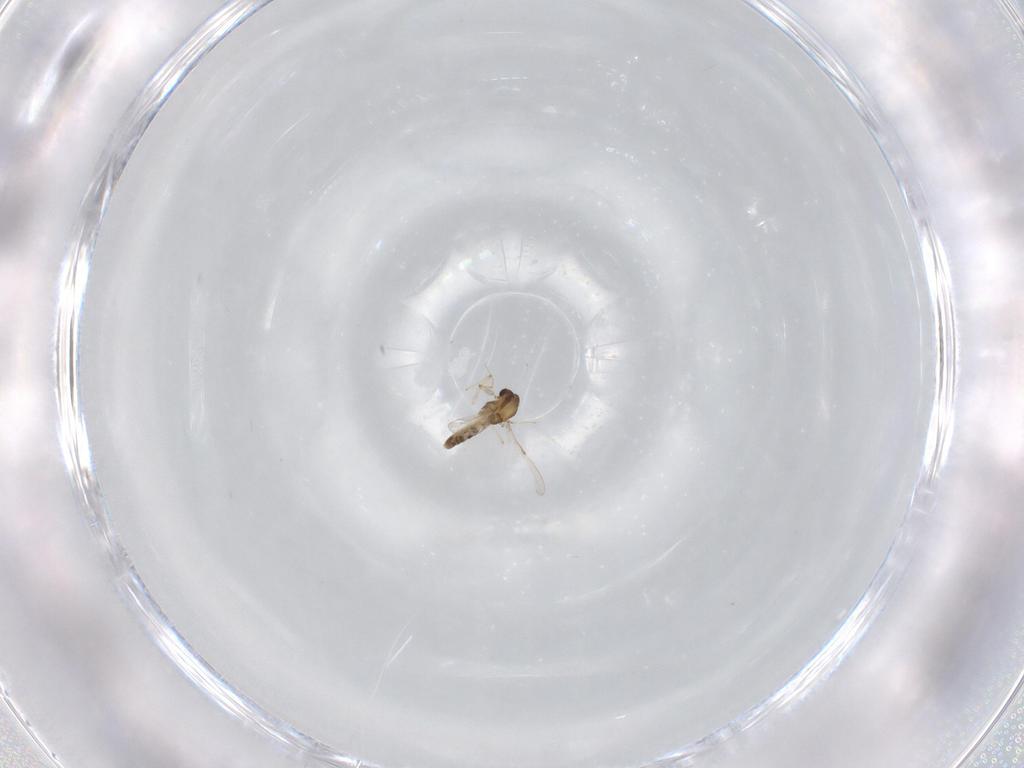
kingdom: Animalia
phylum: Arthropoda
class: Insecta
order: Diptera
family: Chironomidae
